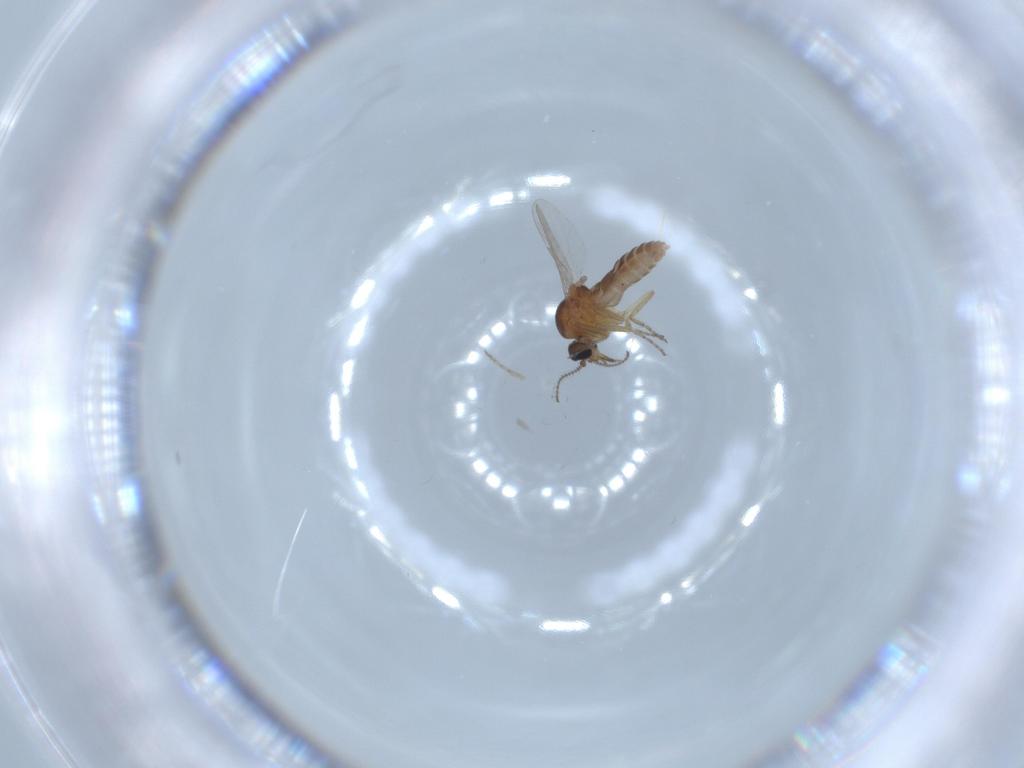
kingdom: Animalia
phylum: Arthropoda
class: Insecta
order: Diptera
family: Ceratopogonidae
